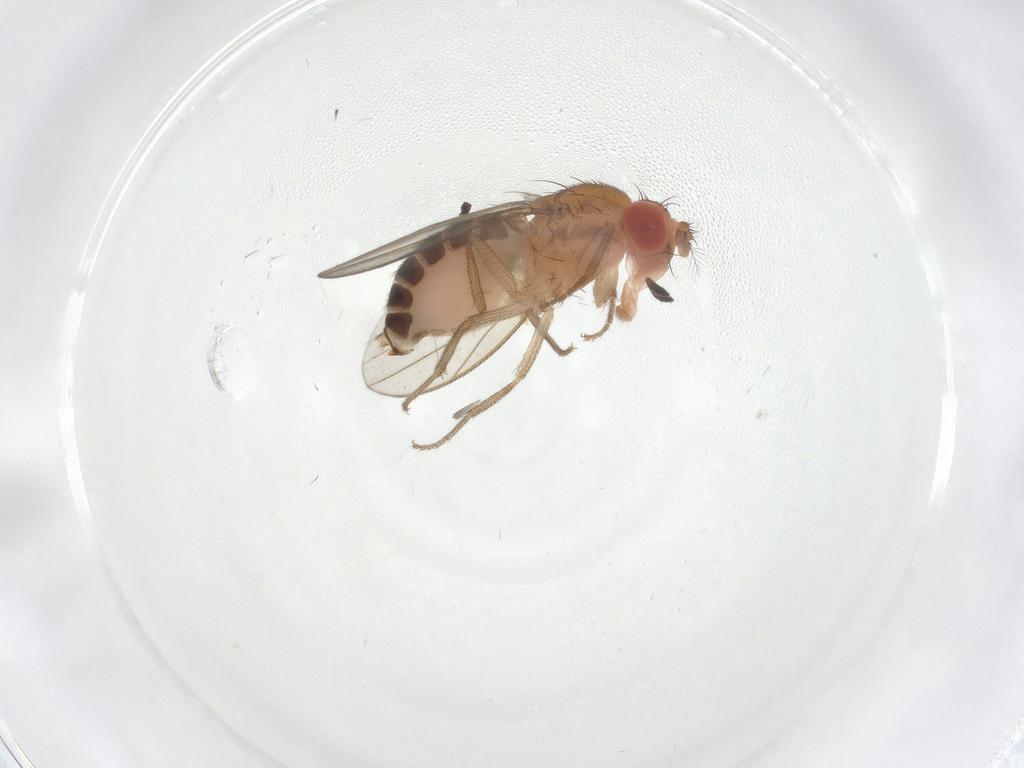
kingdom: Animalia
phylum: Arthropoda
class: Insecta
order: Diptera
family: Drosophilidae
